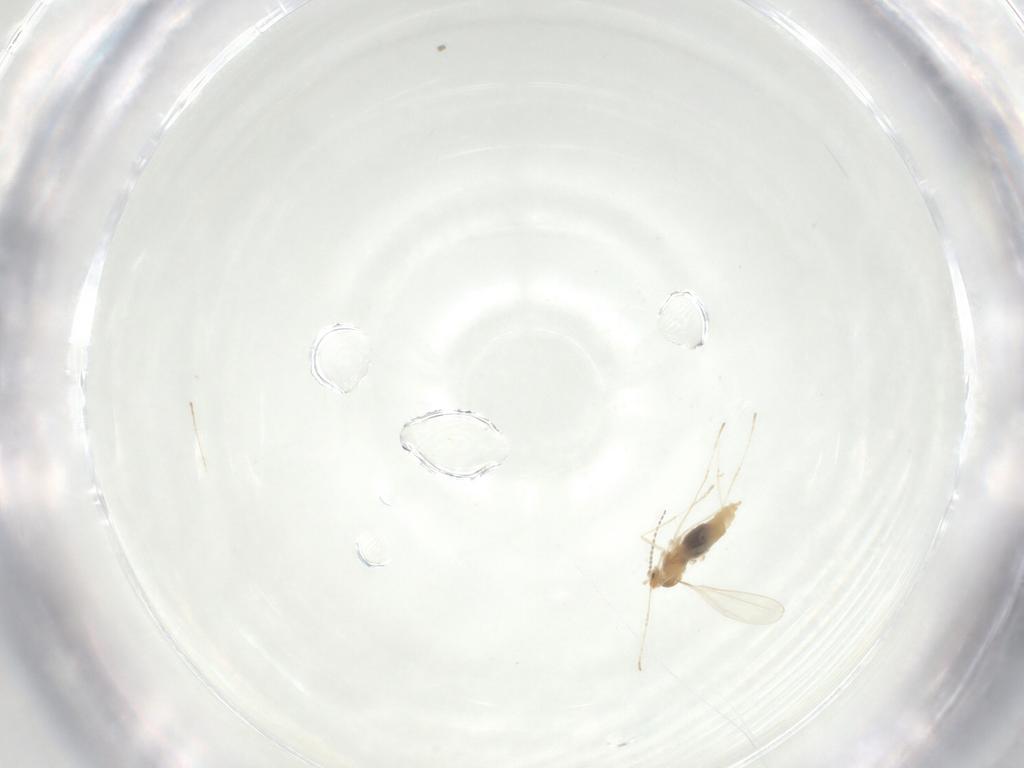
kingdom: Animalia
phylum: Arthropoda
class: Insecta
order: Diptera
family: Cecidomyiidae
